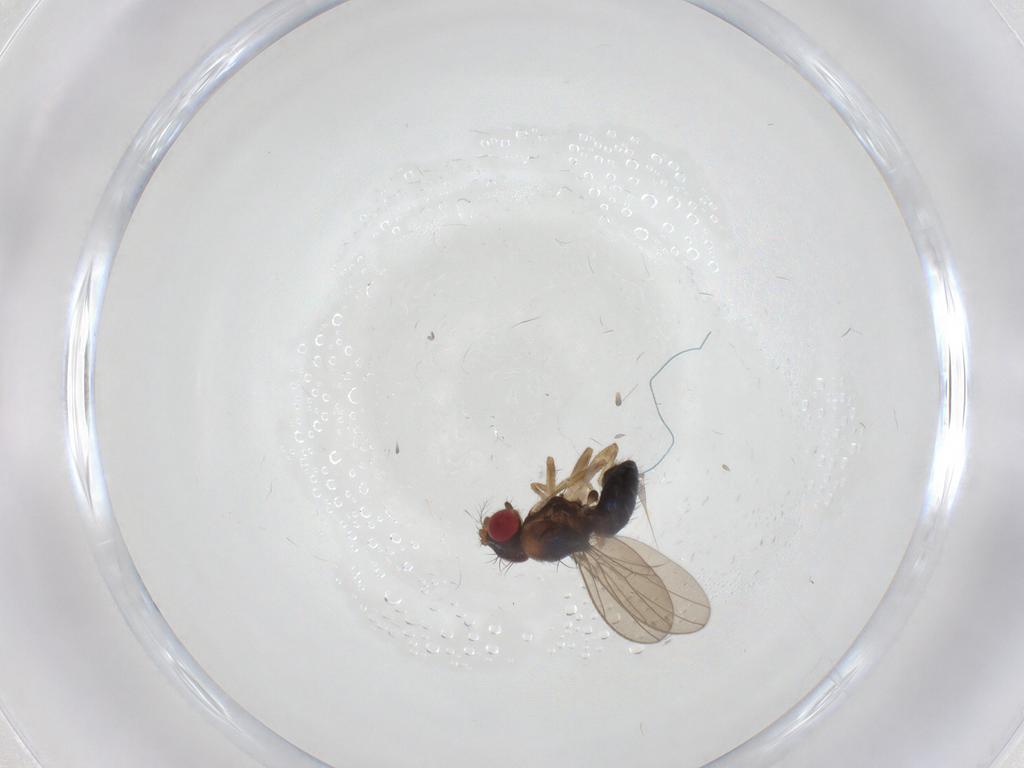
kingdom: Animalia
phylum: Arthropoda
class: Insecta
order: Diptera
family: Drosophilidae
